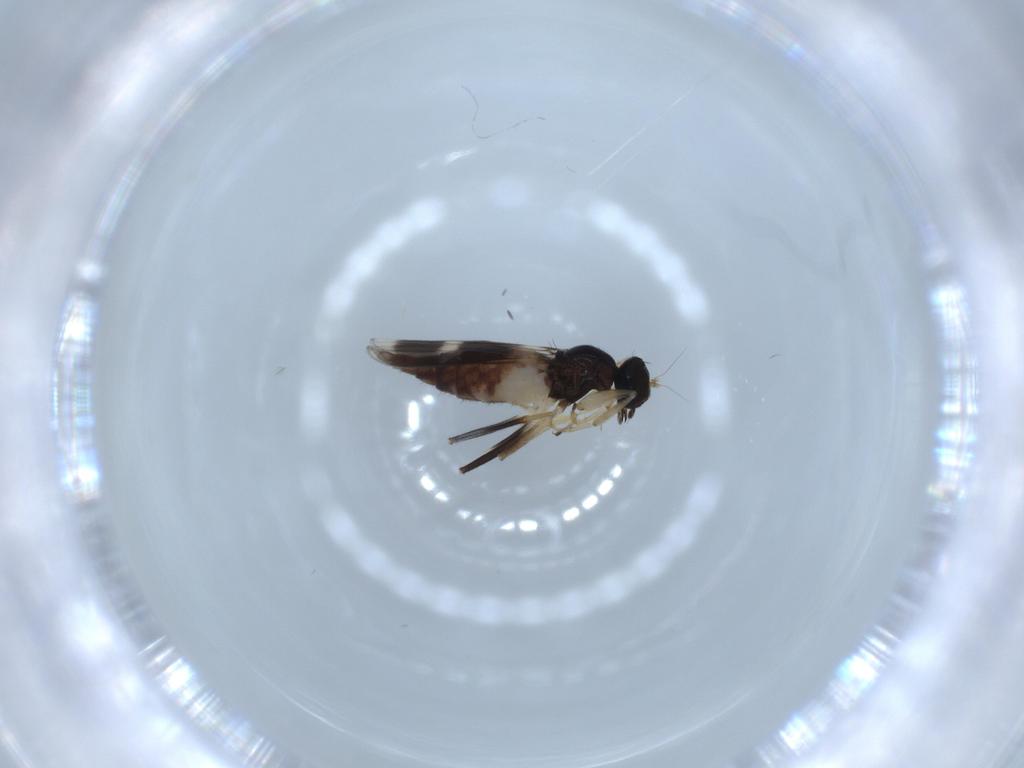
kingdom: Animalia
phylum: Arthropoda
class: Insecta
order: Diptera
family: Hybotidae
